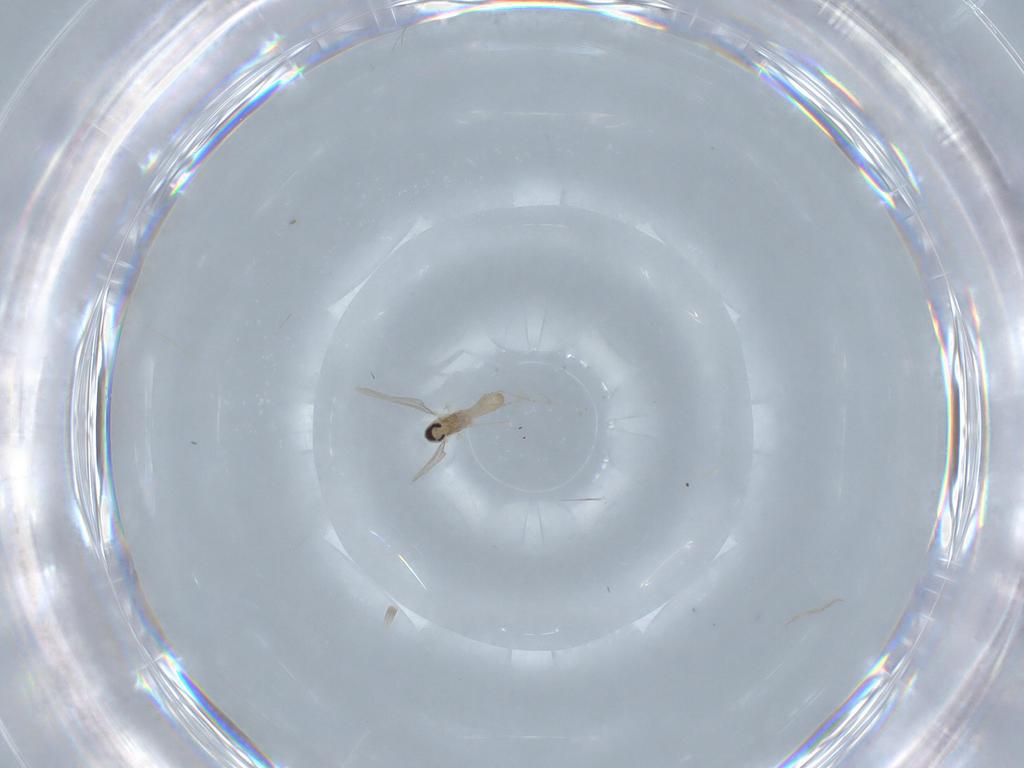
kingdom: Animalia
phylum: Arthropoda
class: Insecta
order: Diptera
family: Cecidomyiidae
